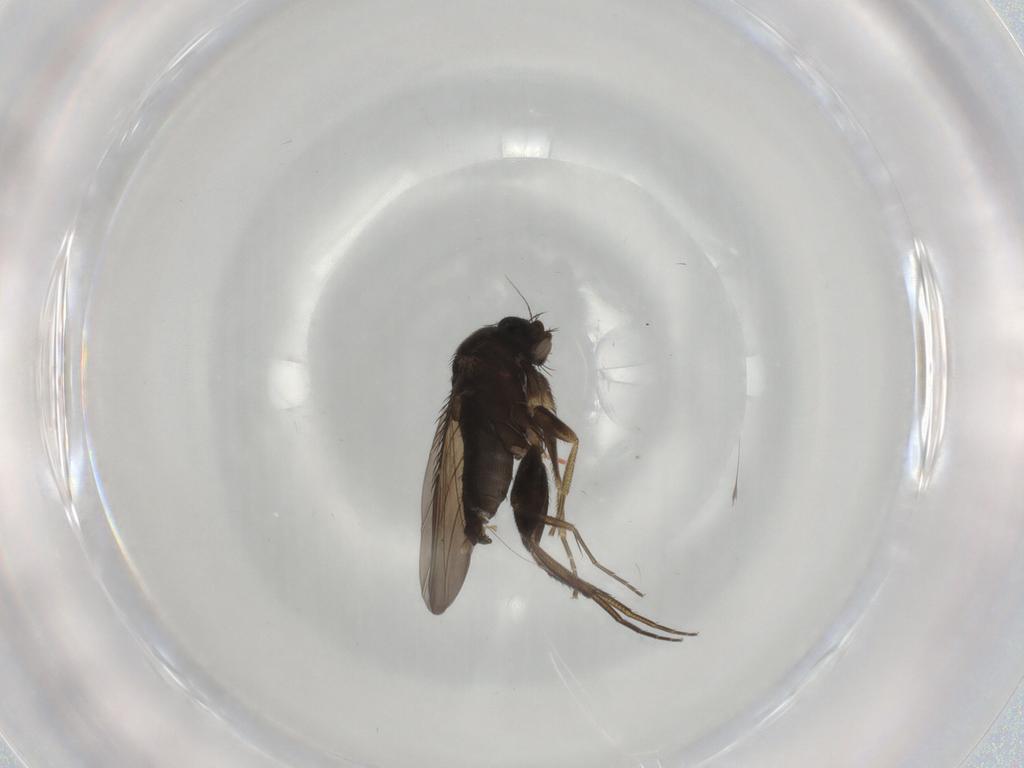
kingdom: Animalia
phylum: Arthropoda
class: Insecta
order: Diptera
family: Phoridae
